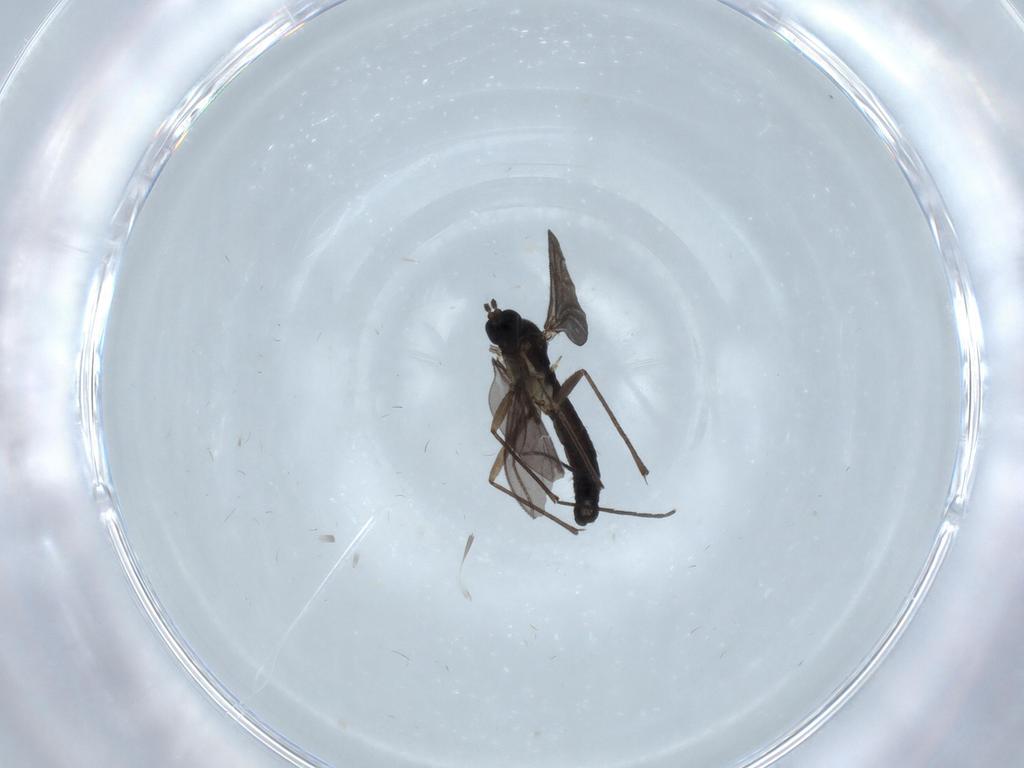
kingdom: Animalia
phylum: Arthropoda
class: Insecta
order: Diptera
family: Sciaridae
